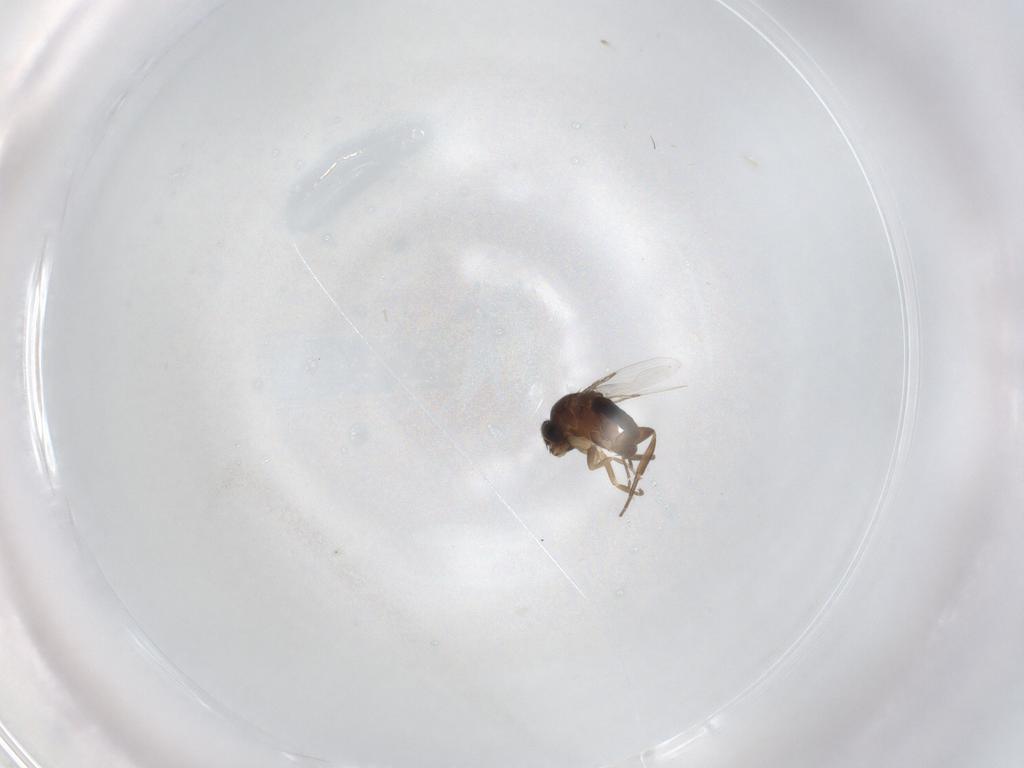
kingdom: Animalia
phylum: Arthropoda
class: Insecta
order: Diptera
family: Phoridae
